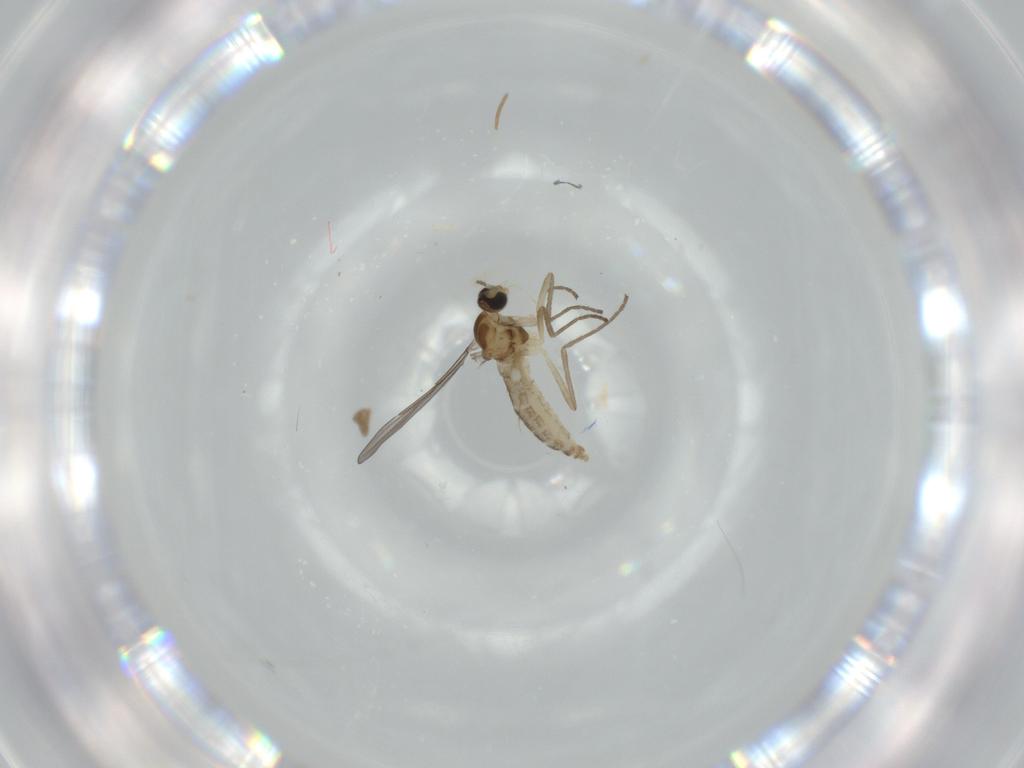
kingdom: Animalia
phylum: Arthropoda
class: Insecta
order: Diptera
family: Cecidomyiidae
